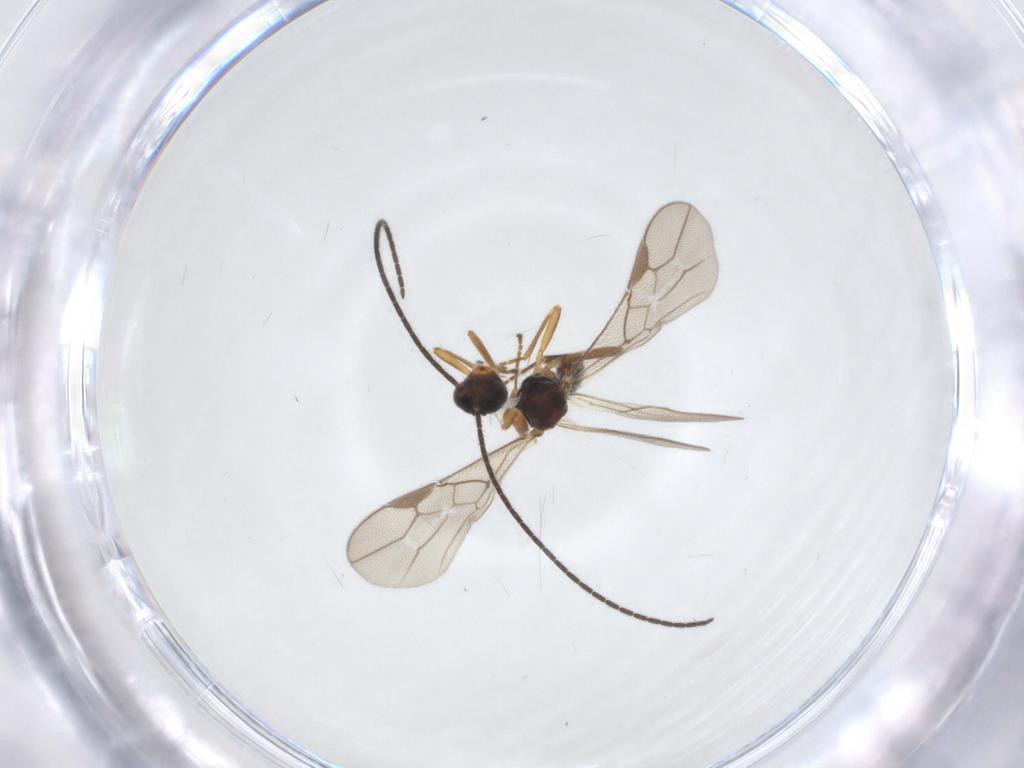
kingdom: Animalia
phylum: Arthropoda
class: Insecta
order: Hymenoptera
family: Braconidae
